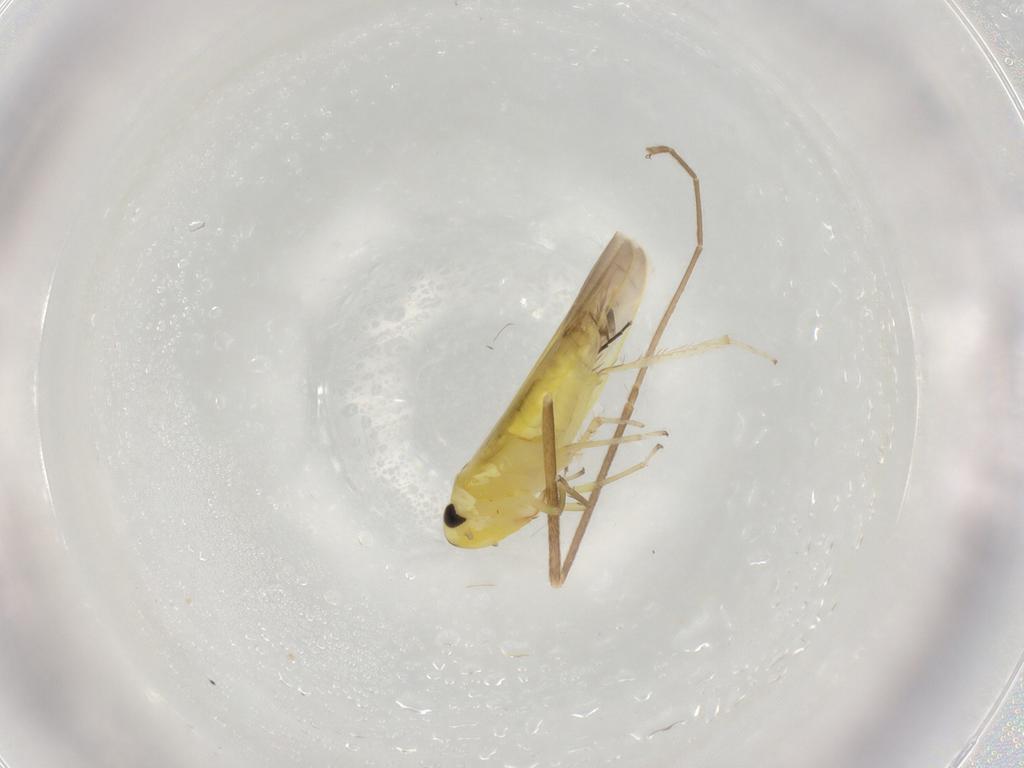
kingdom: Animalia
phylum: Arthropoda
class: Insecta
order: Hemiptera
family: Cicadellidae
